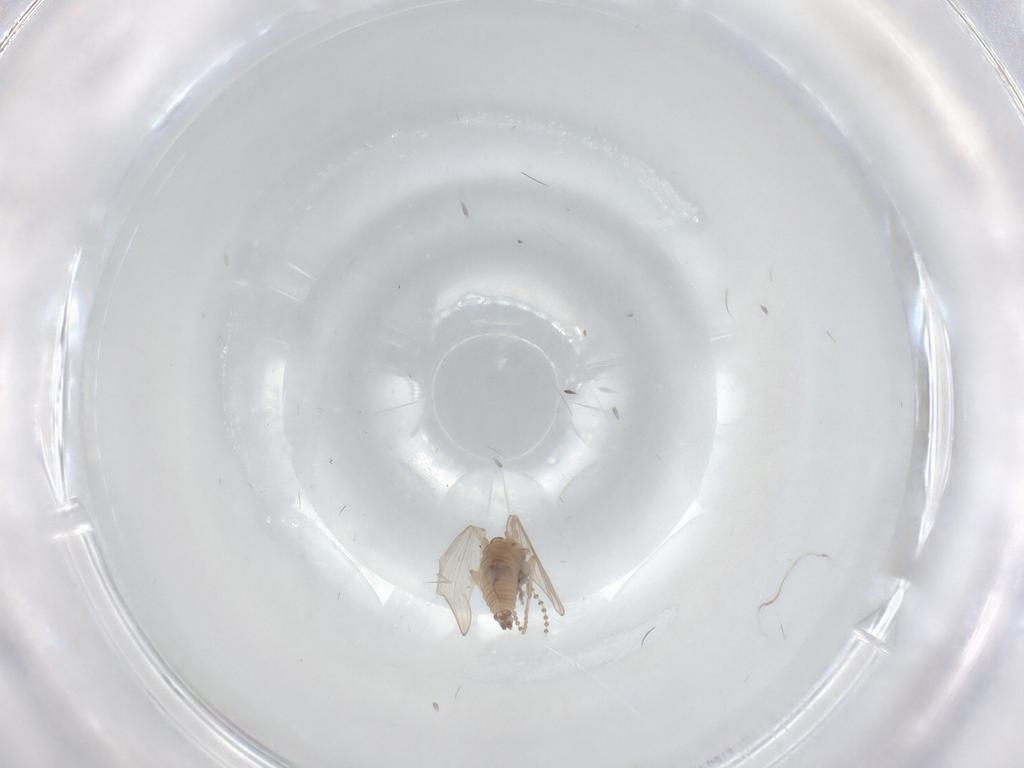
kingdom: Animalia
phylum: Arthropoda
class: Insecta
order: Diptera
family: Psychodidae
